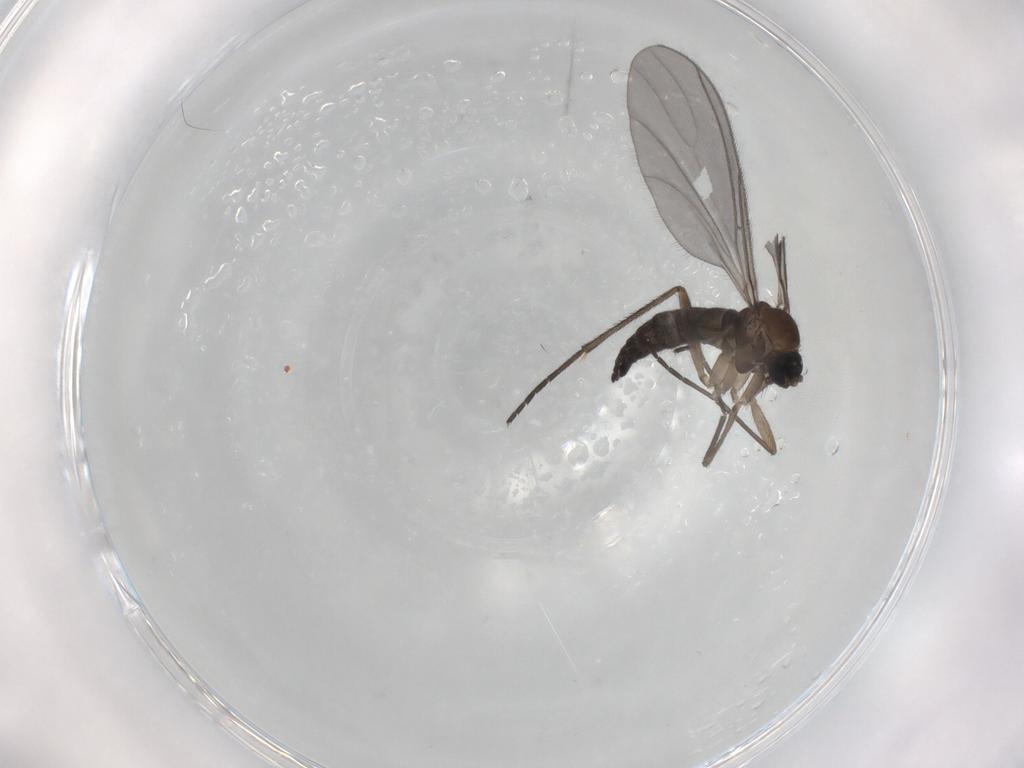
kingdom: Animalia
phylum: Arthropoda
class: Insecta
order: Diptera
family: Sciaridae
